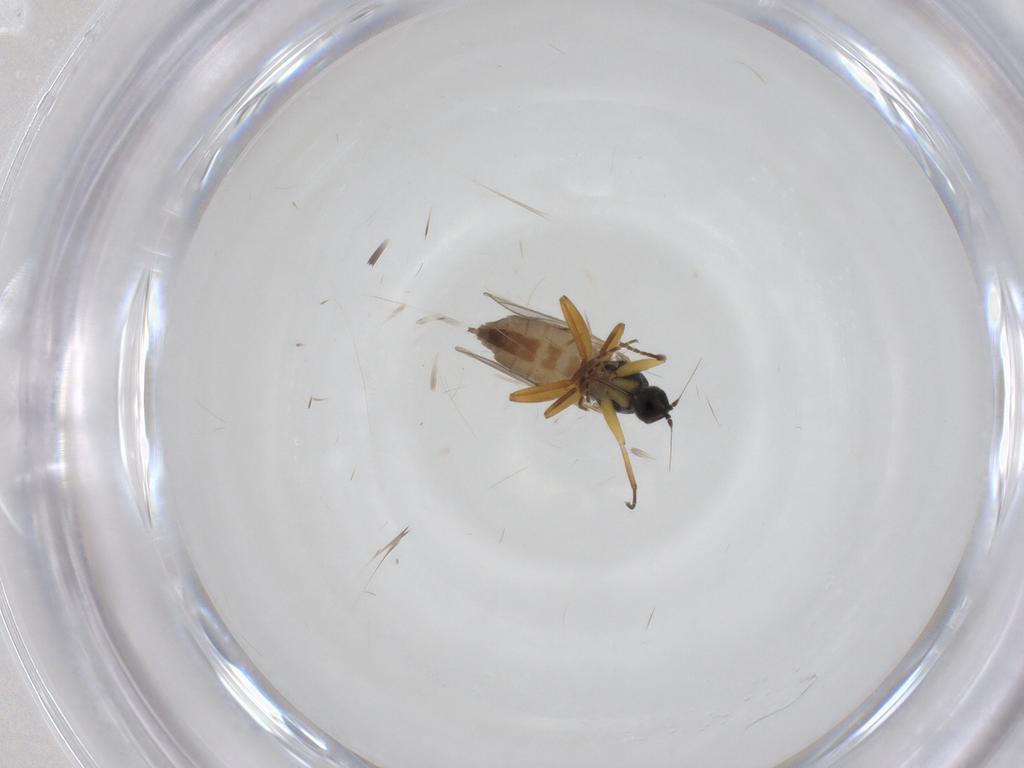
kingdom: Animalia
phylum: Arthropoda
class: Insecta
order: Diptera
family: Hybotidae
